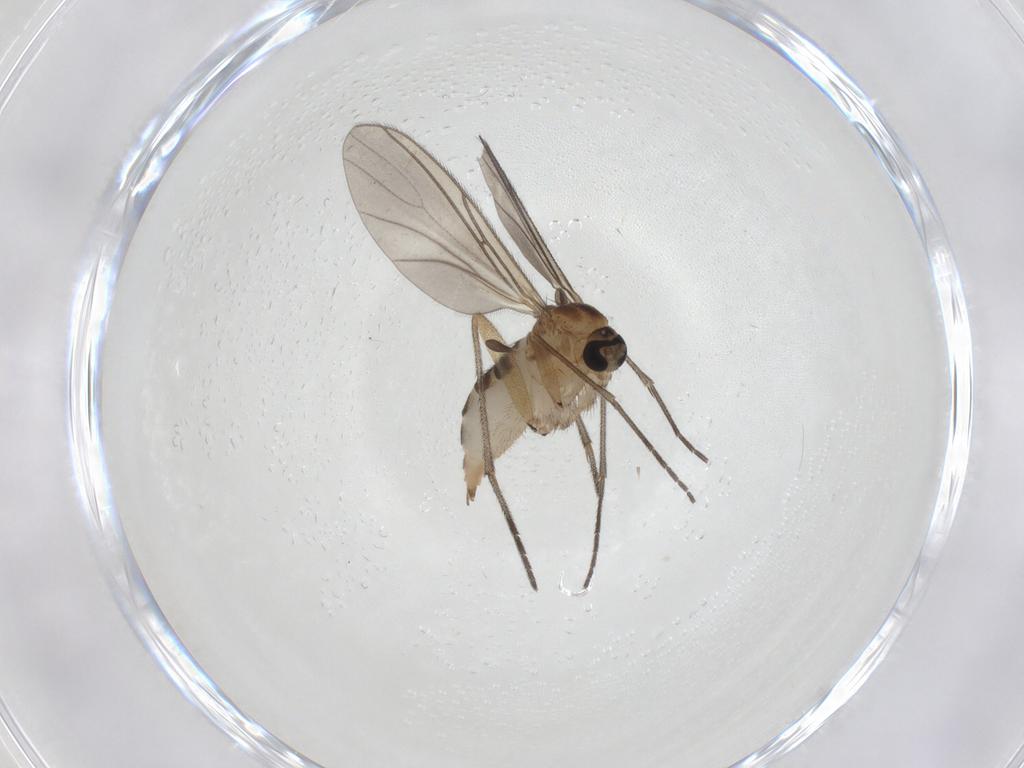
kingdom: Animalia
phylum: Arthropoda
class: Insecta
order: Diptera
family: Sciaridae
